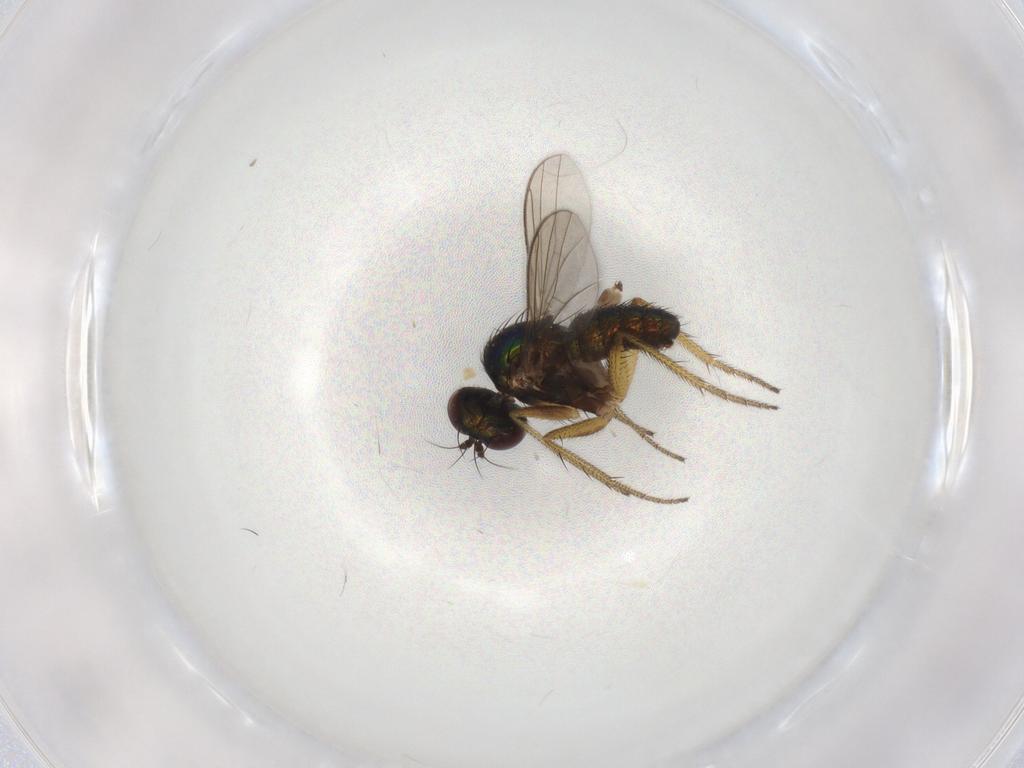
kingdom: Animalia
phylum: Arthropoda
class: Insecta
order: Diptera
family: Dolichopodidae
